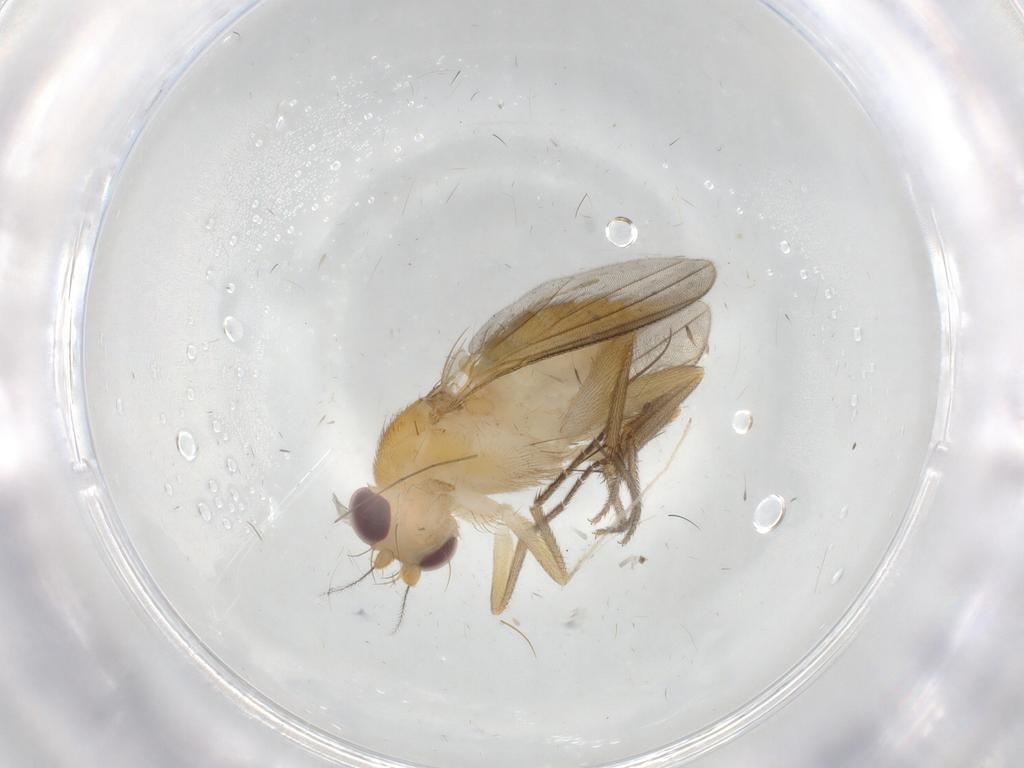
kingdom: Animalia
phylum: Arthropoda
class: Insecta
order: Diptera
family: Clusiidae
